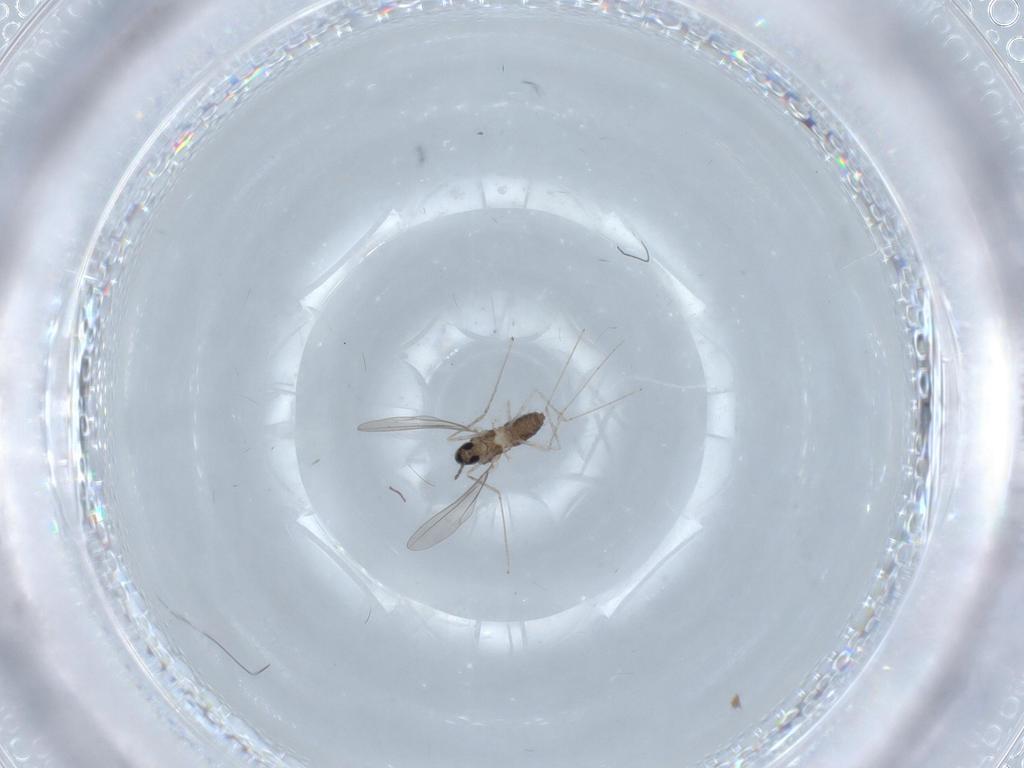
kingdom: Animalia
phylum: Arthropoda
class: Insecta
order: Diptera
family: Cecidomyiidae
